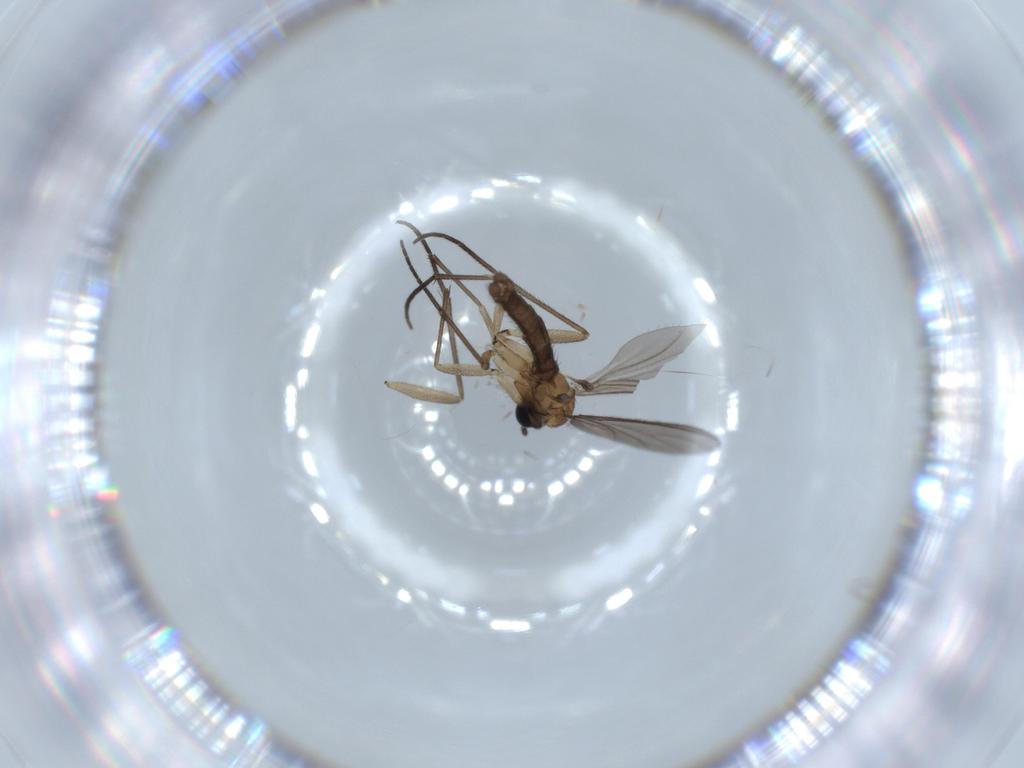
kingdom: Animalia
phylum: Arthropoda
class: Insecta
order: Diptera
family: Sciaridae
